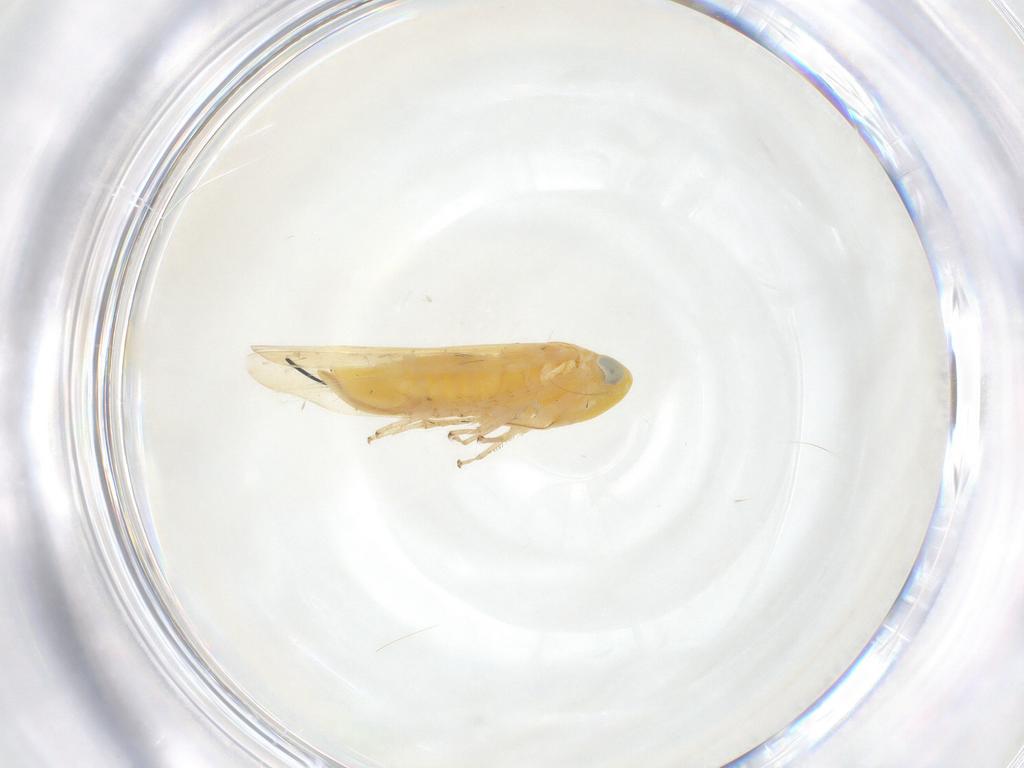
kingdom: Animalia
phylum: Arthropoda
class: Insecta
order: Hemiptera
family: Cicadellidae
